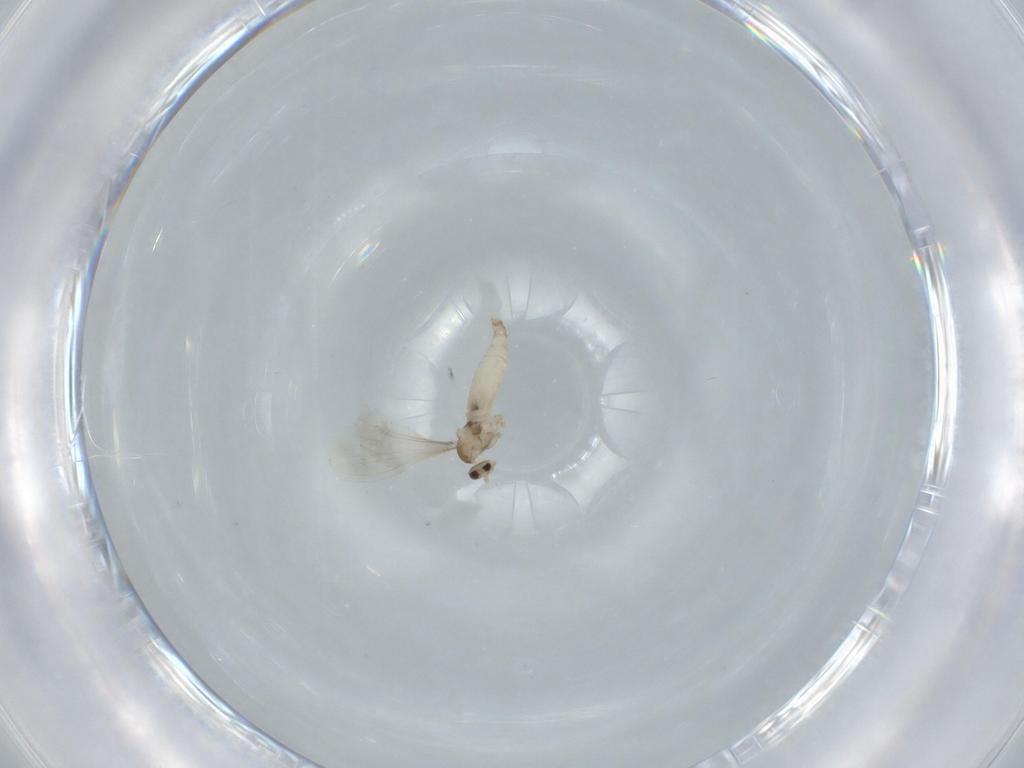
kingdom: Animalia
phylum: Arthropoda
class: Insecta
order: Diptera
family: Cecidomyiidae
